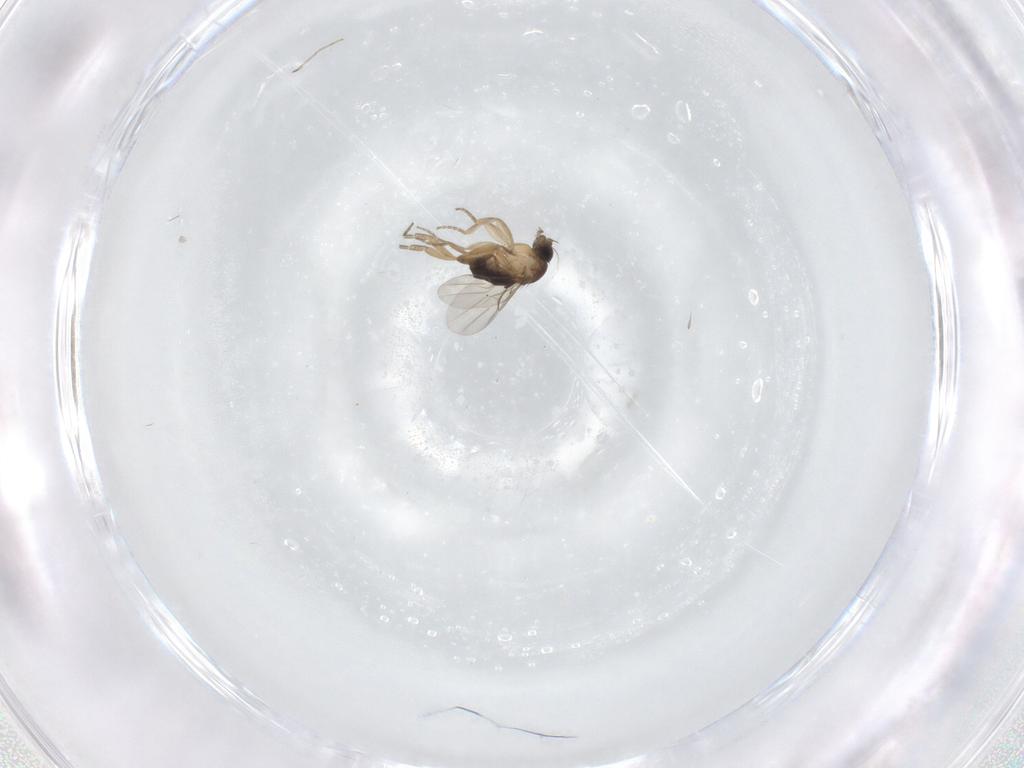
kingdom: Animalia
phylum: Arthropoda
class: Insecta
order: Diptera
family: Phoridae
